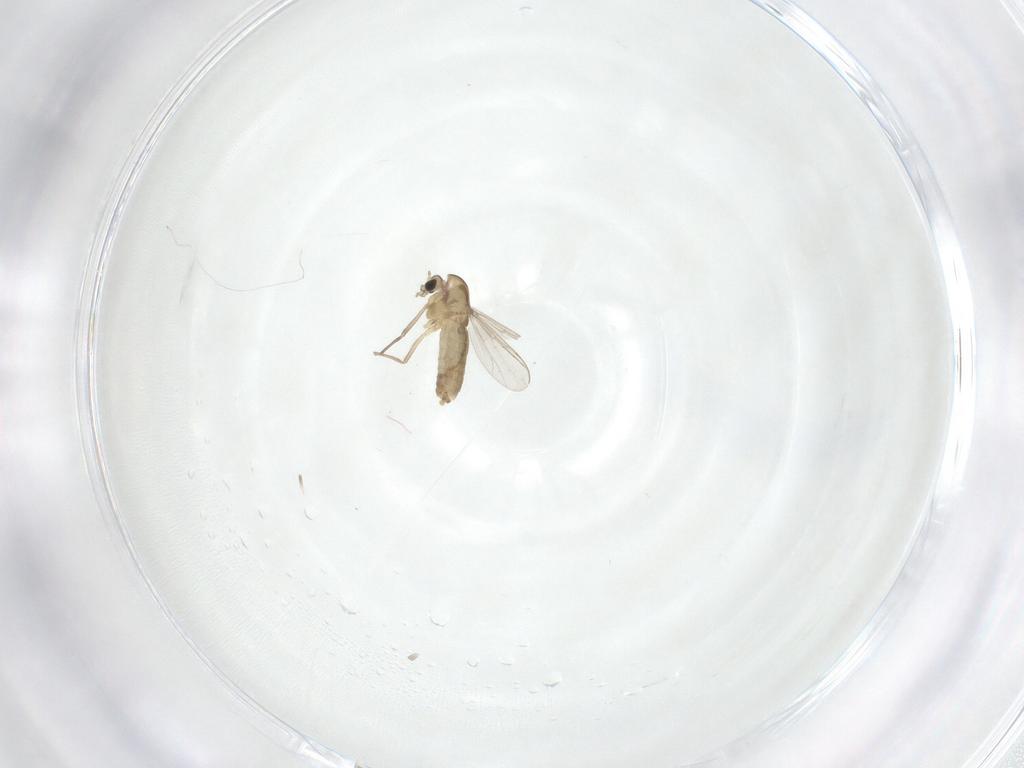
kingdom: Animalia
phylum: Arthropoda
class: Insecta
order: Diptera
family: Chironomidae
